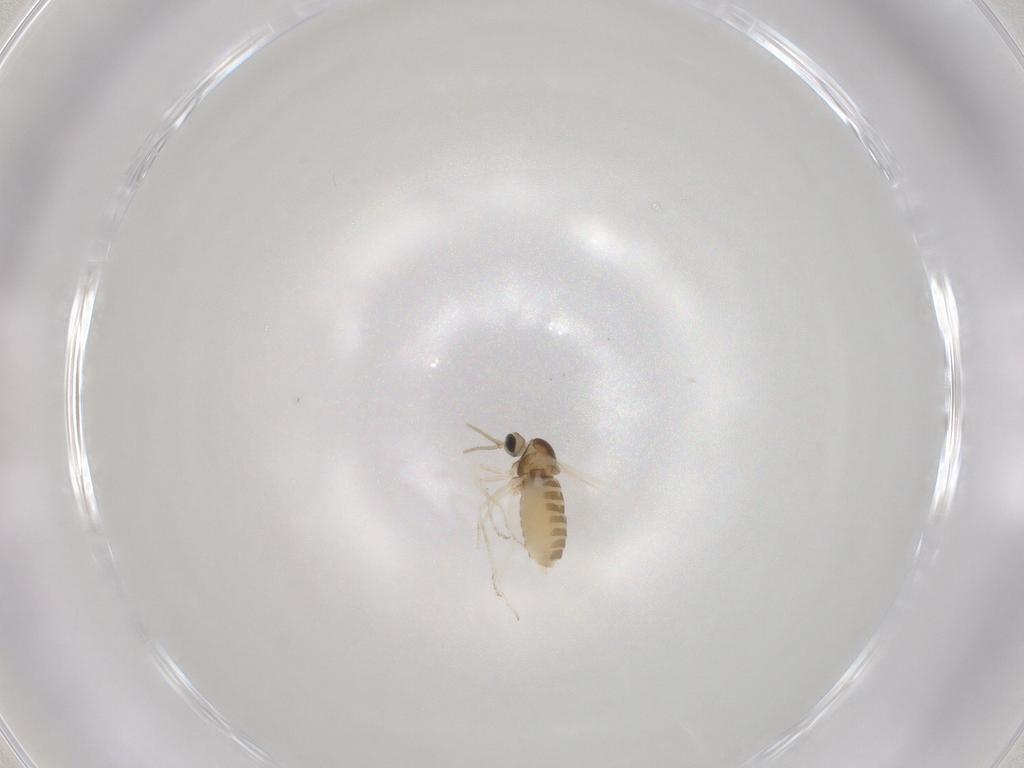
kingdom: Animalia
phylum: Arthropoda
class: Insecta
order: Diptera
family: Cecidomyiidae
